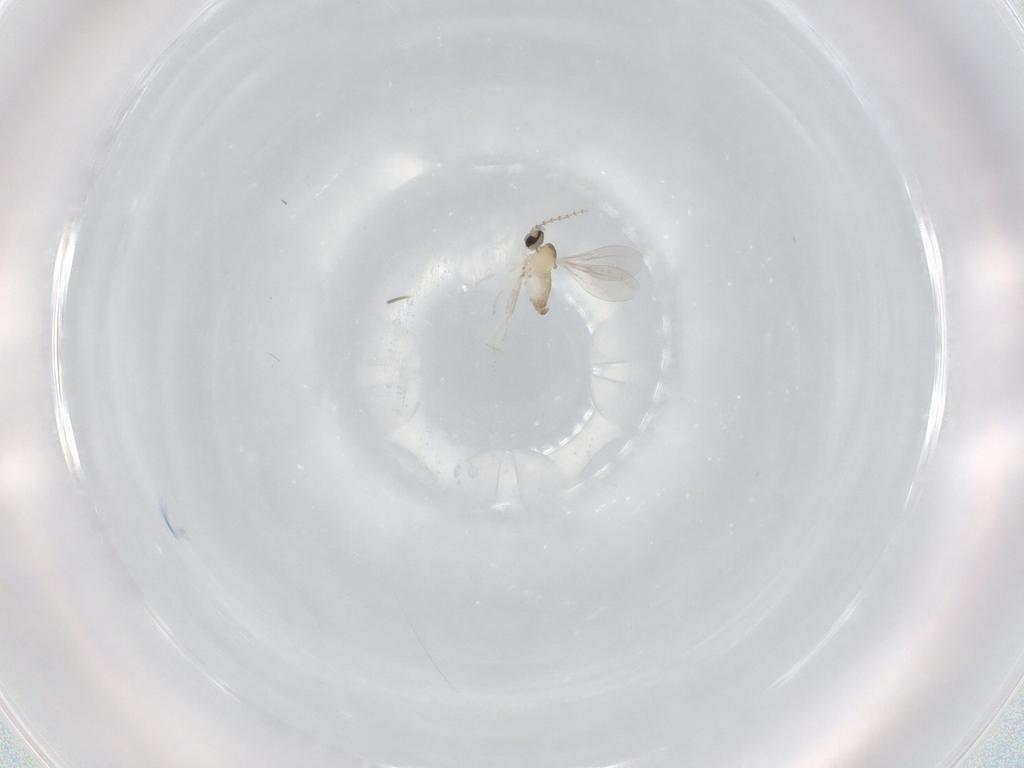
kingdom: Animalia
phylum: Arthropoda
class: Insecta
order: Diptera
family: Cecidomyiidae
